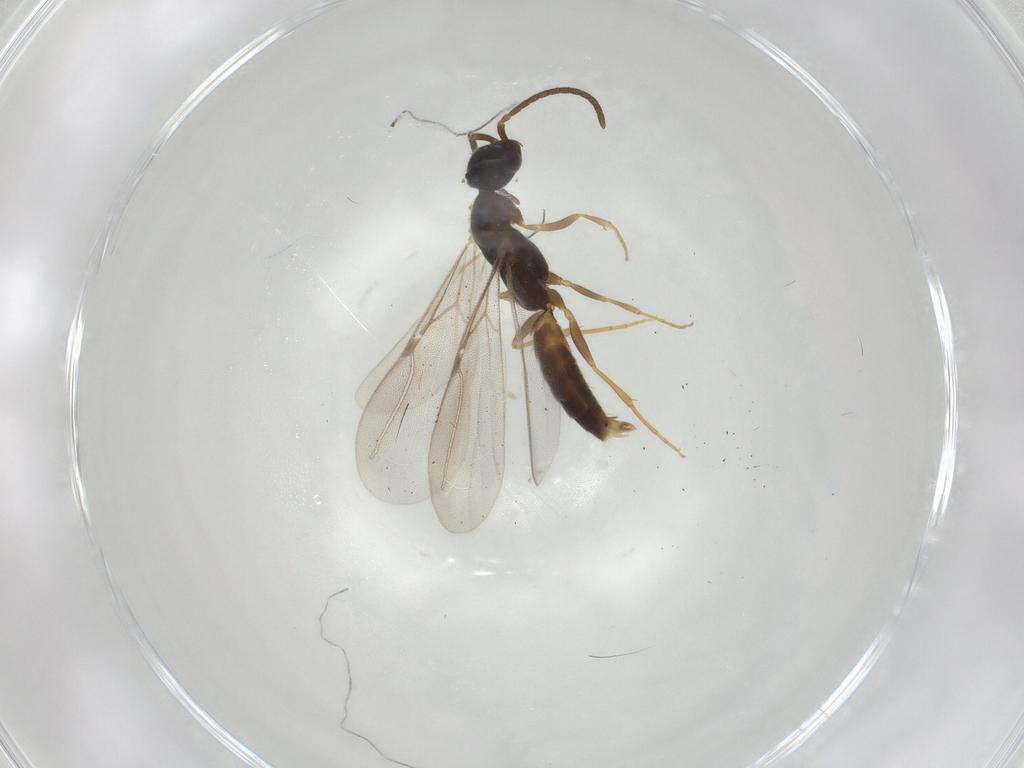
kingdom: Animalia
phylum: Arthropoda
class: Insecta
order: Hymenoptera
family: Bethylidae
